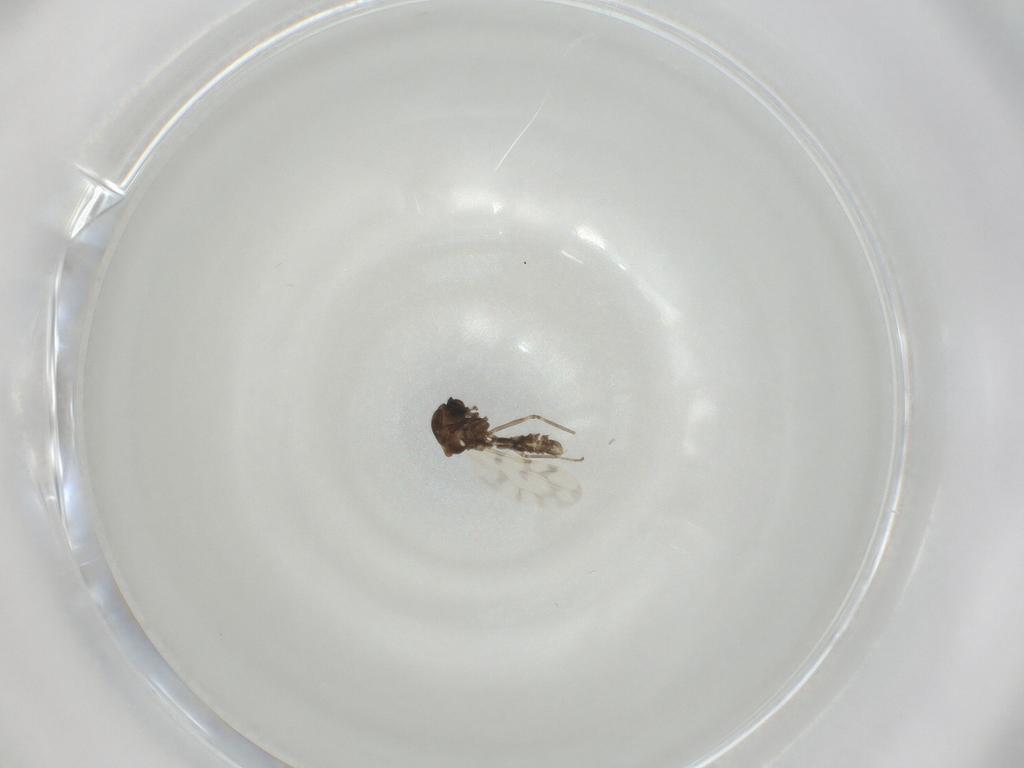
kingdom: Animalia
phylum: Arthropoda
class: Insecta
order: Diptera
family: Ceratopogonidae
